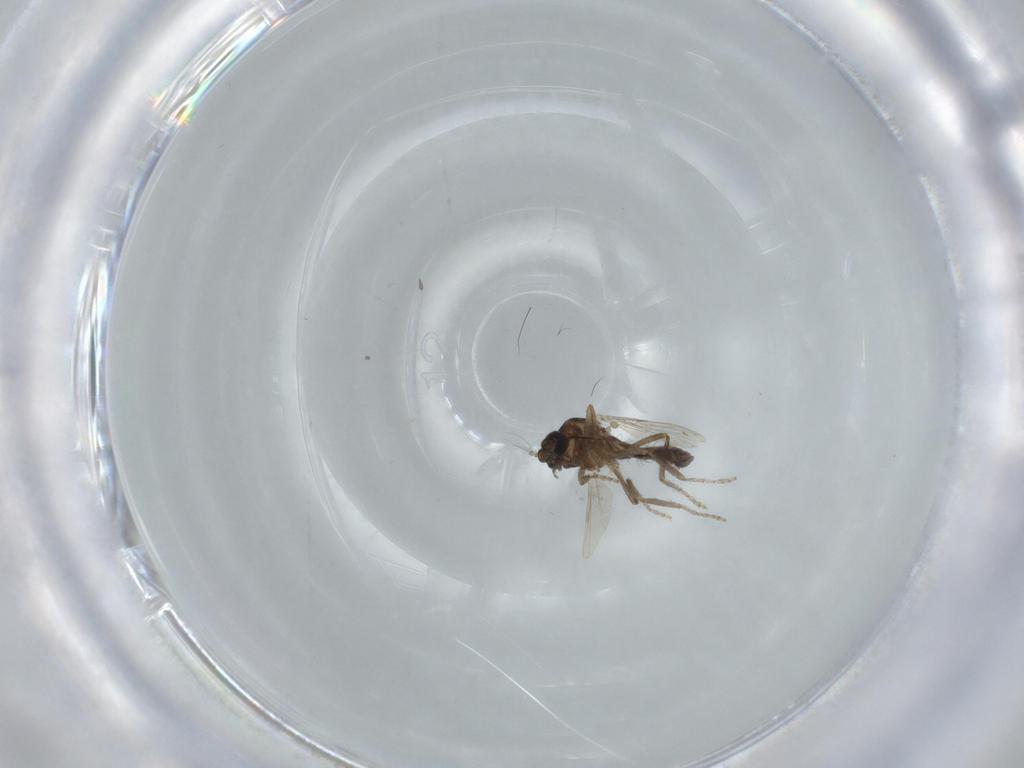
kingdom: Animalia
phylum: Arthropoda
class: Insecta
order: Diptera
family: Ceratopogonidae
